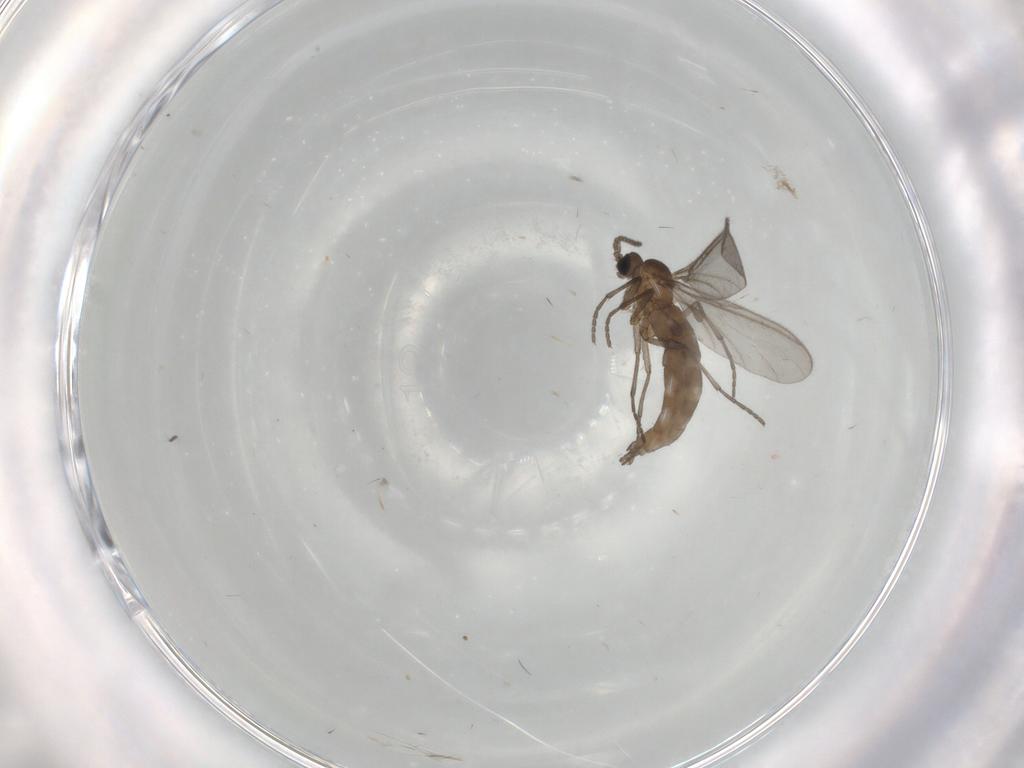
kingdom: Animalia
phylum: Arthropoda
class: Insecta
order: Diptera
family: Sciaridae
